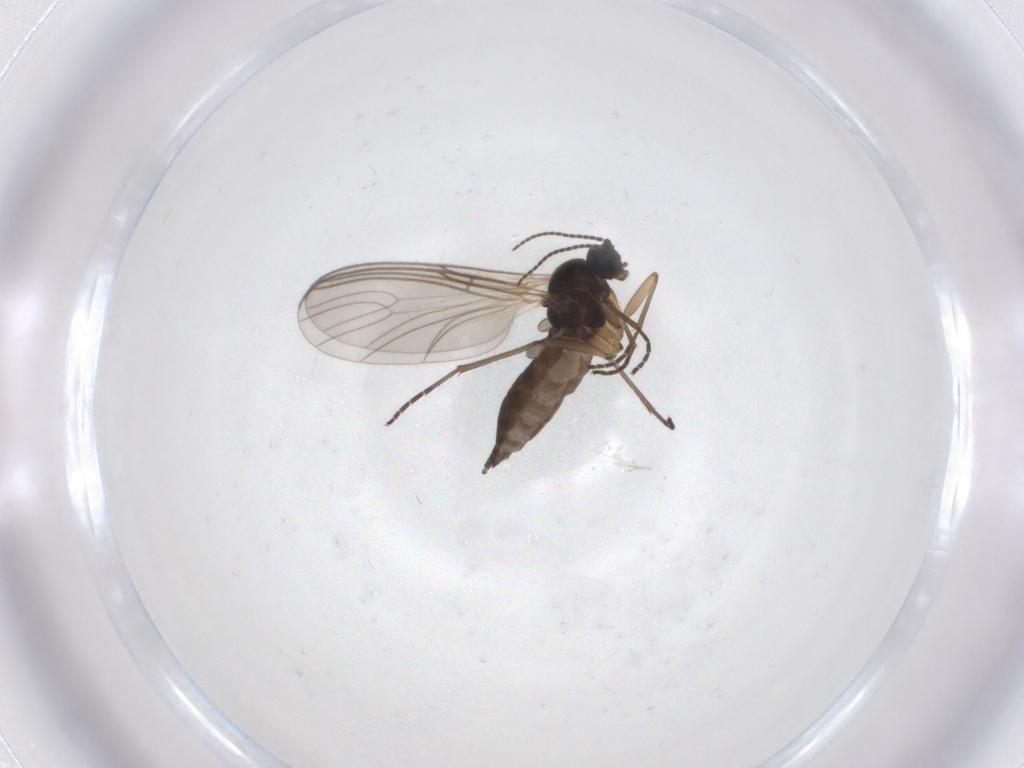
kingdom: Animalia
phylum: Arthropoda
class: Insecta
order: Diptera
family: Sciaridae
